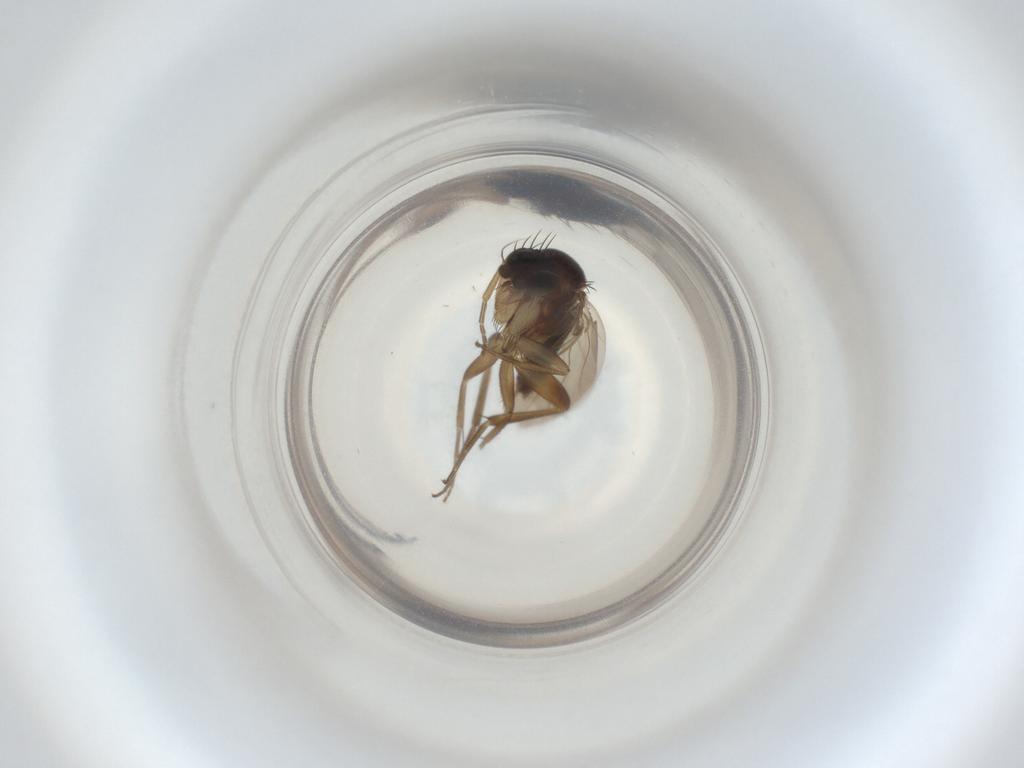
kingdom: Animalia
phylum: Arthropoda
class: Insecta
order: Diptera
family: Phoridae
